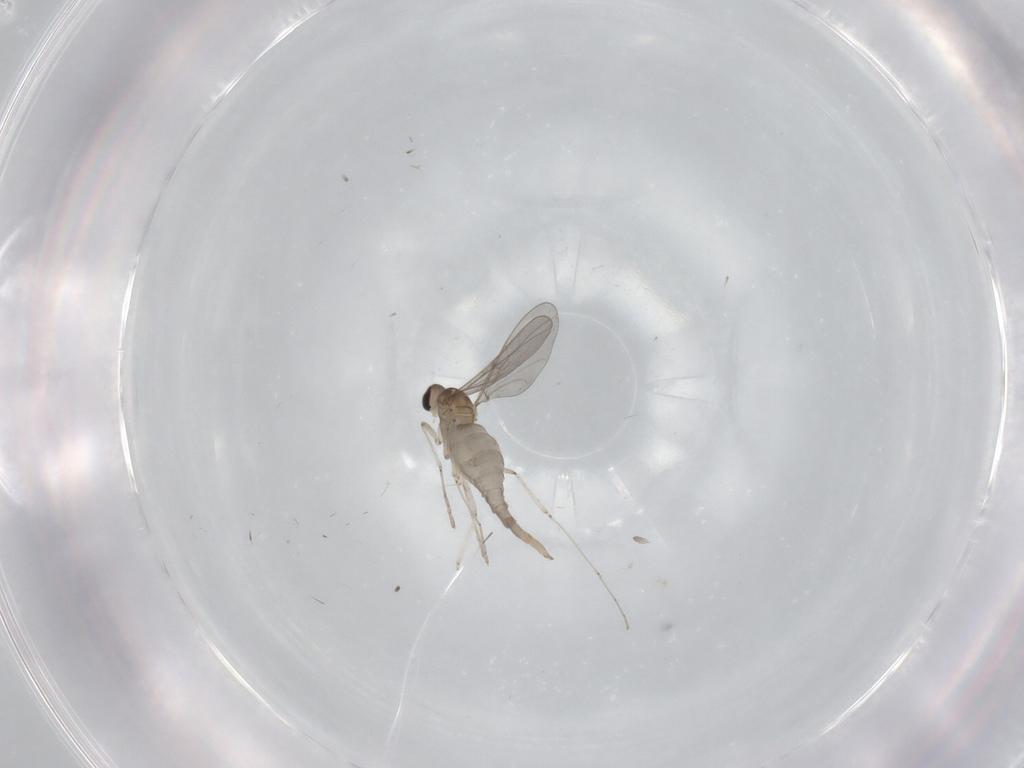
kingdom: Animalia
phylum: Arthropoda
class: Insecta
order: Diptera
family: Cecidomyiidae
